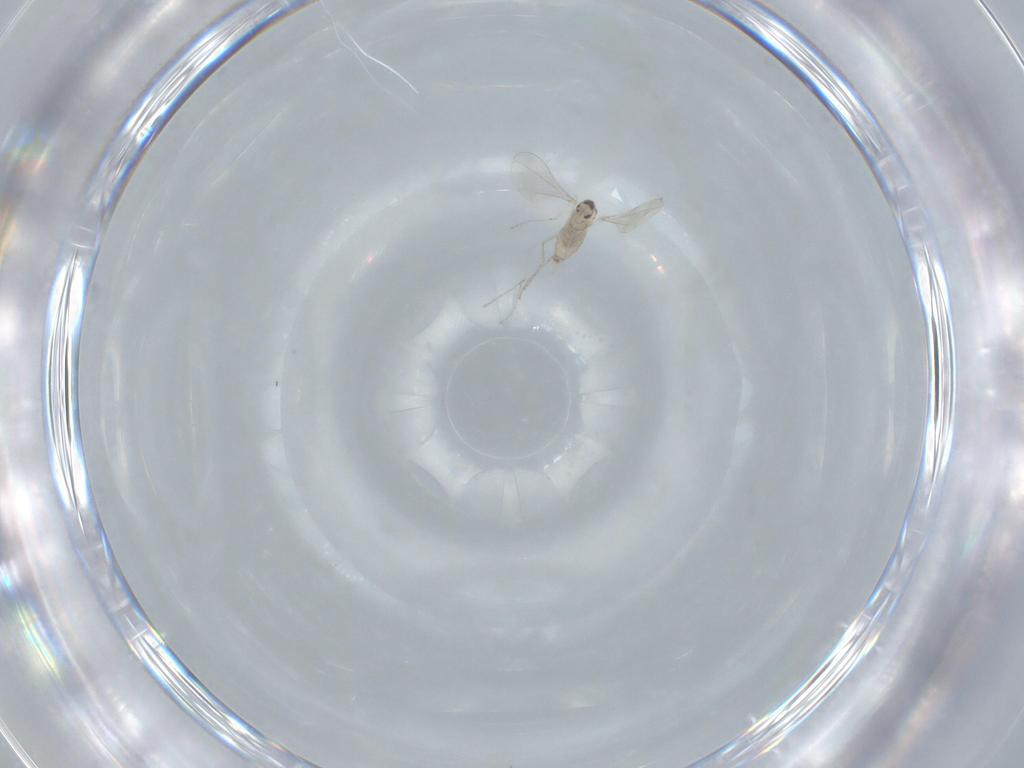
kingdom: Animalia
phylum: Arthropoda
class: Insecta
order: Diptera
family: Cecidomyiidae
